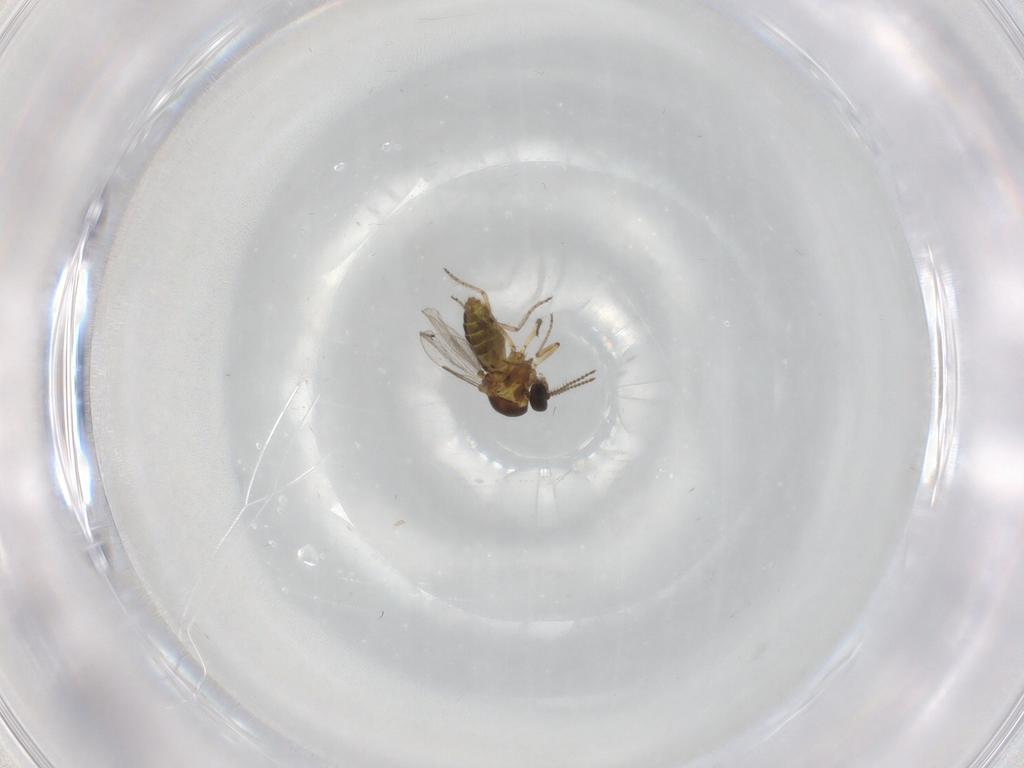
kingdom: Animalia
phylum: Arthropoda
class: Insecta
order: Diptera
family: Ceratopogonidae
